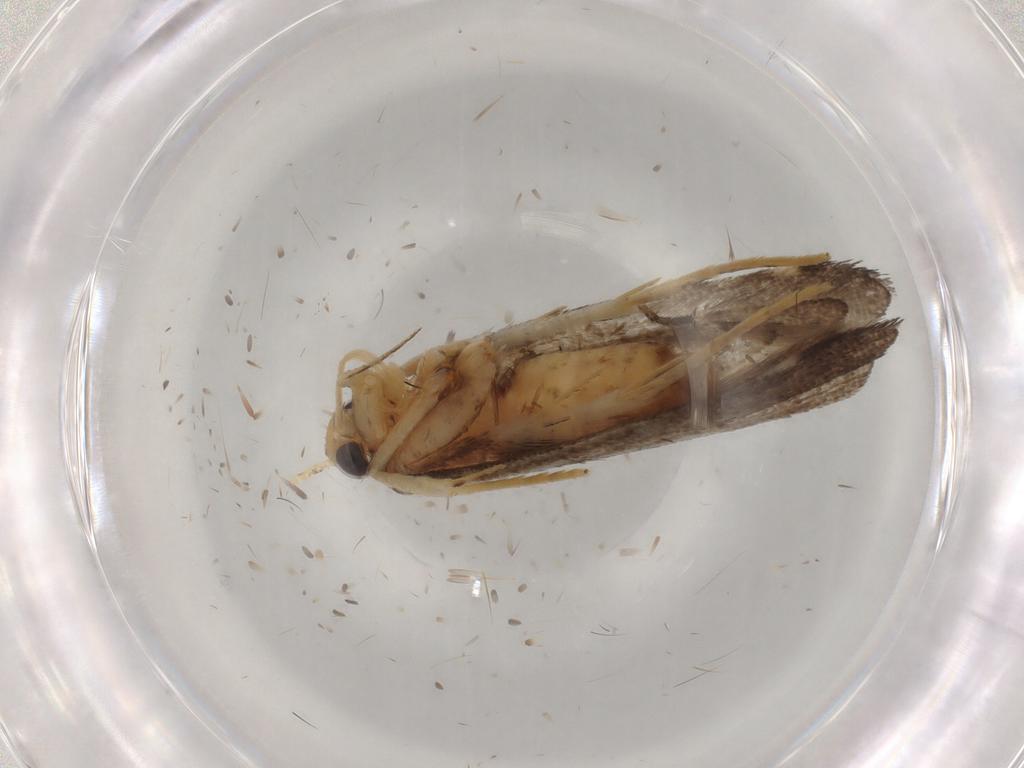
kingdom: Animalia
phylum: Arthropoda
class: Insecta
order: Lepidoptera
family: Lecithoceridae
